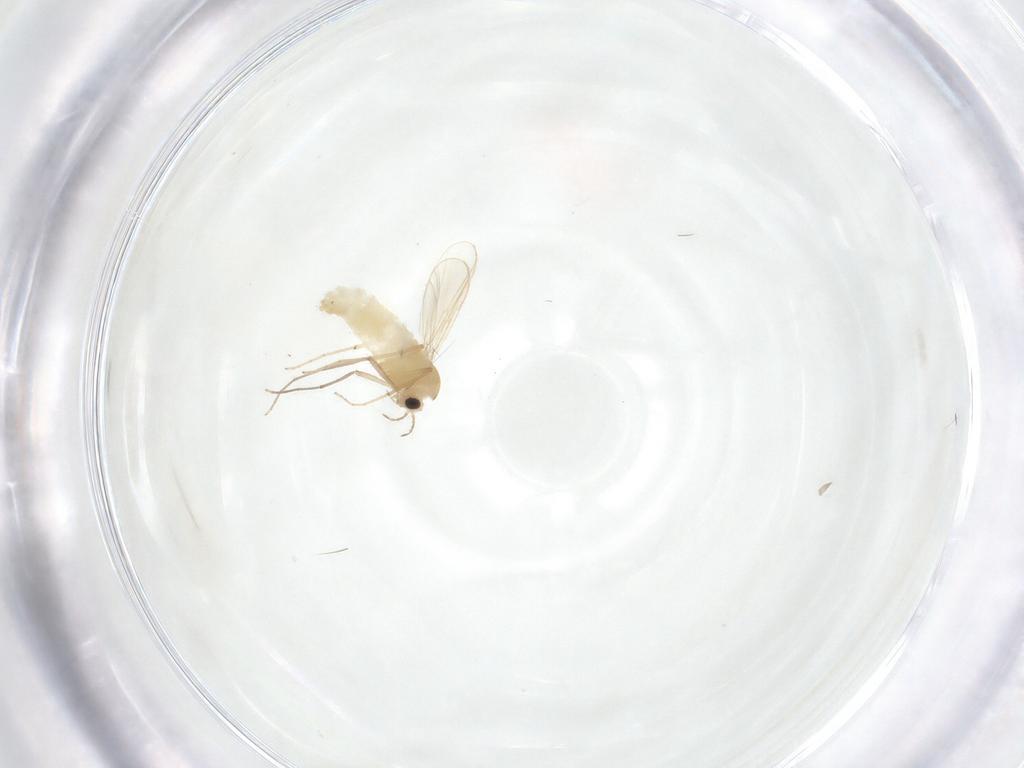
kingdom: Animalia
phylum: Arthropoda
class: Insecta
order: Diptera
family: Chironomidae
